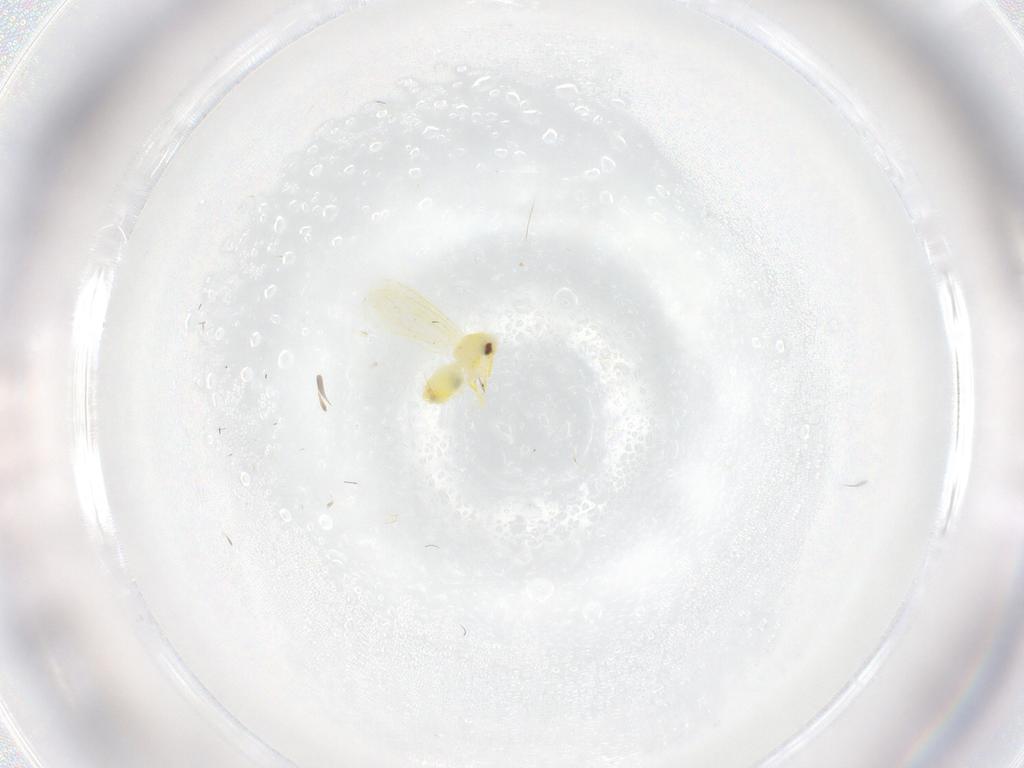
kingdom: Animalia
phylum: Arthropoda
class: Insecta
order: Hemiptera
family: Aleyrodidae
